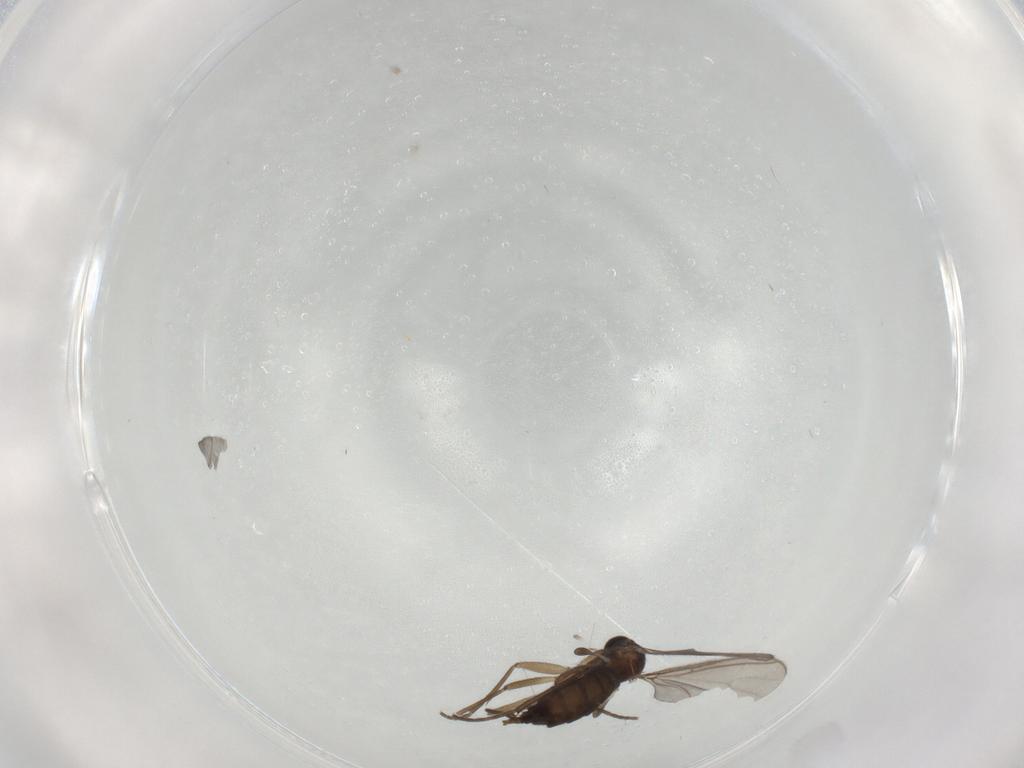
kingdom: Animalia
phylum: Arthropoda
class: Insecta
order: Diptera
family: Sciaridae
